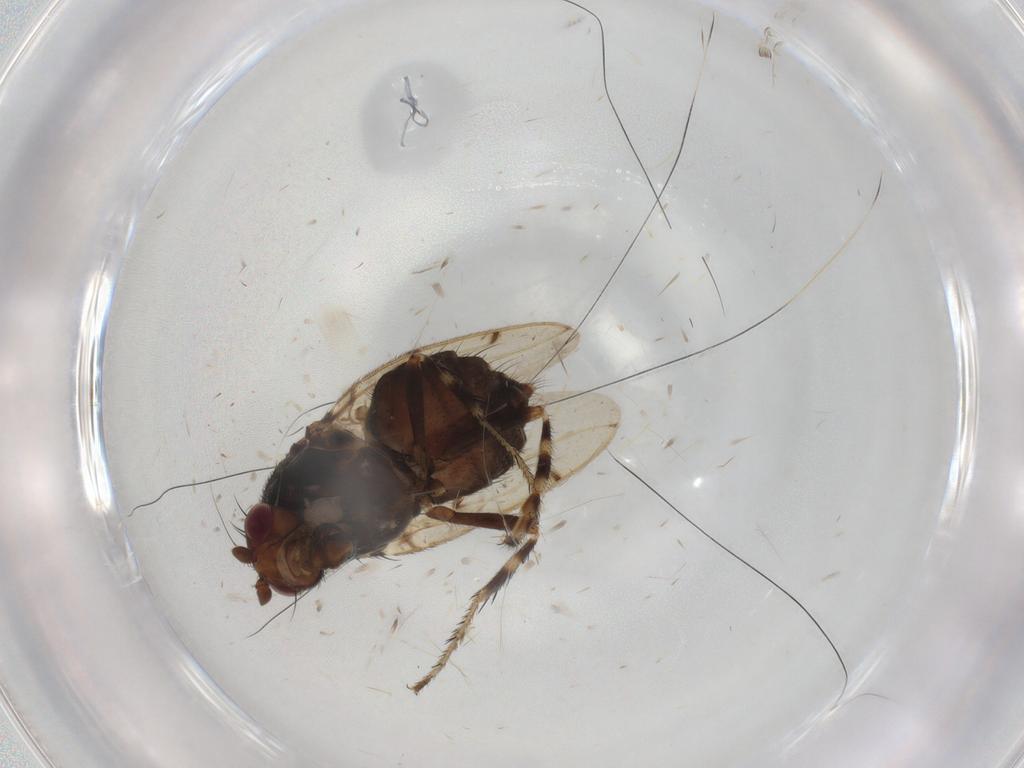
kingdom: Animalia
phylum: Arthropoda
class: Insecta
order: Diptera
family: Sphaeroceridae
